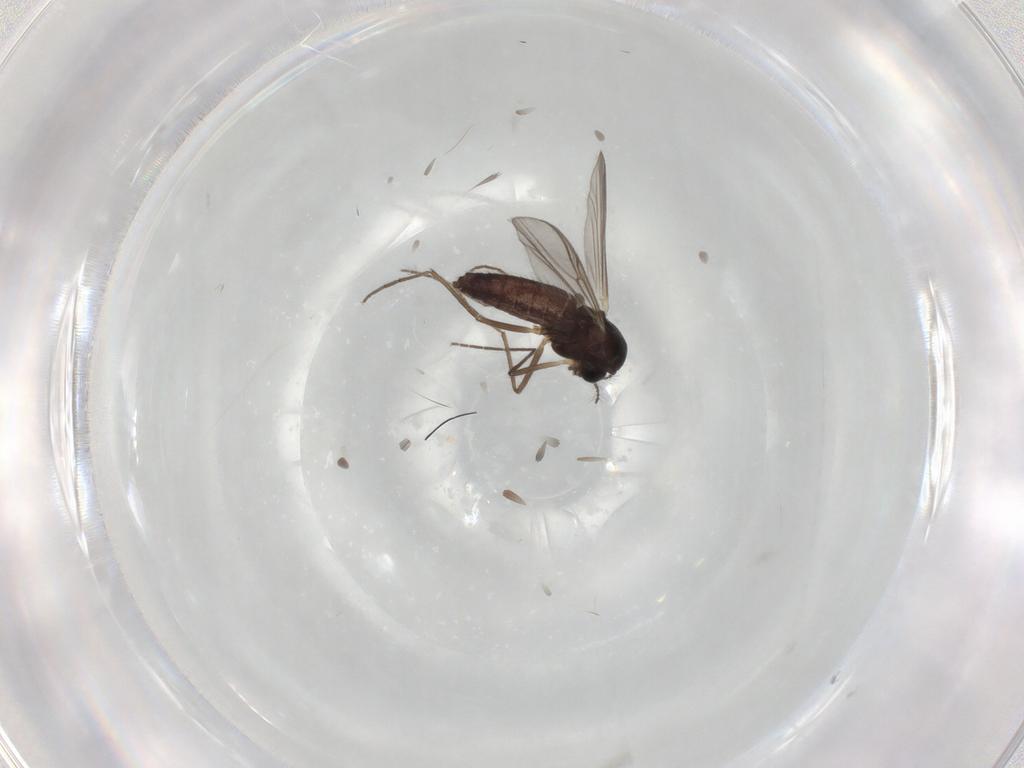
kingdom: Animalia
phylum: Arthropoda
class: Insecta
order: Diptera
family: Chironomidae
